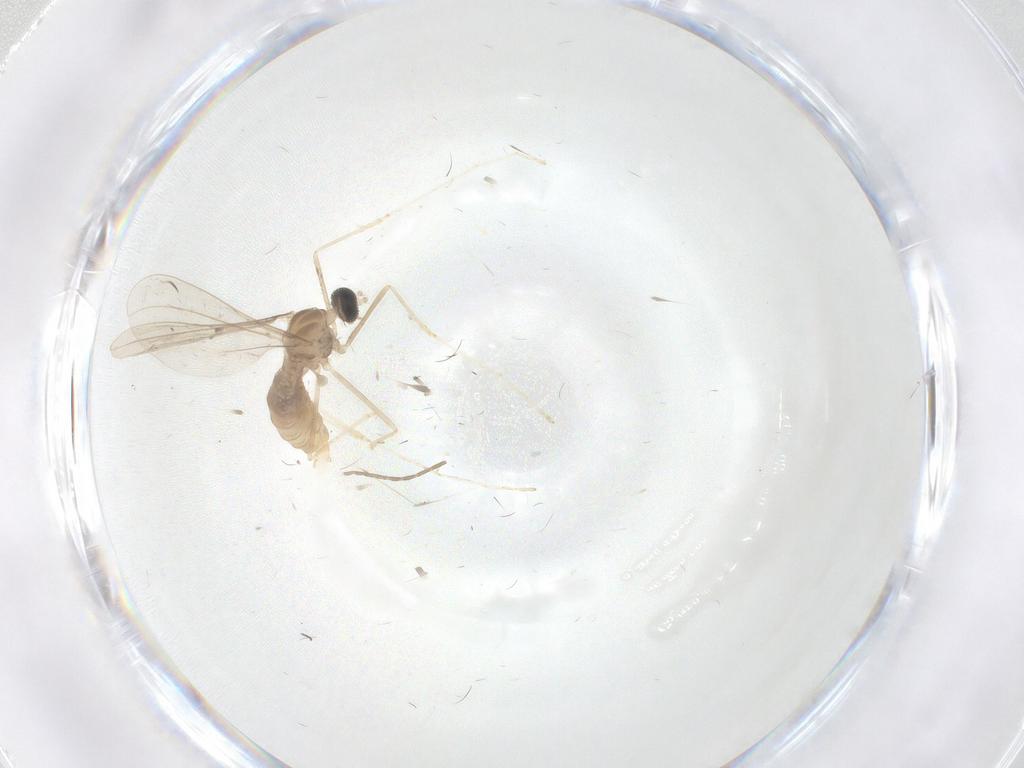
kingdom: Animalia
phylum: Arthropoda
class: Insecta
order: Diptera
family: Cecidomyiidae
